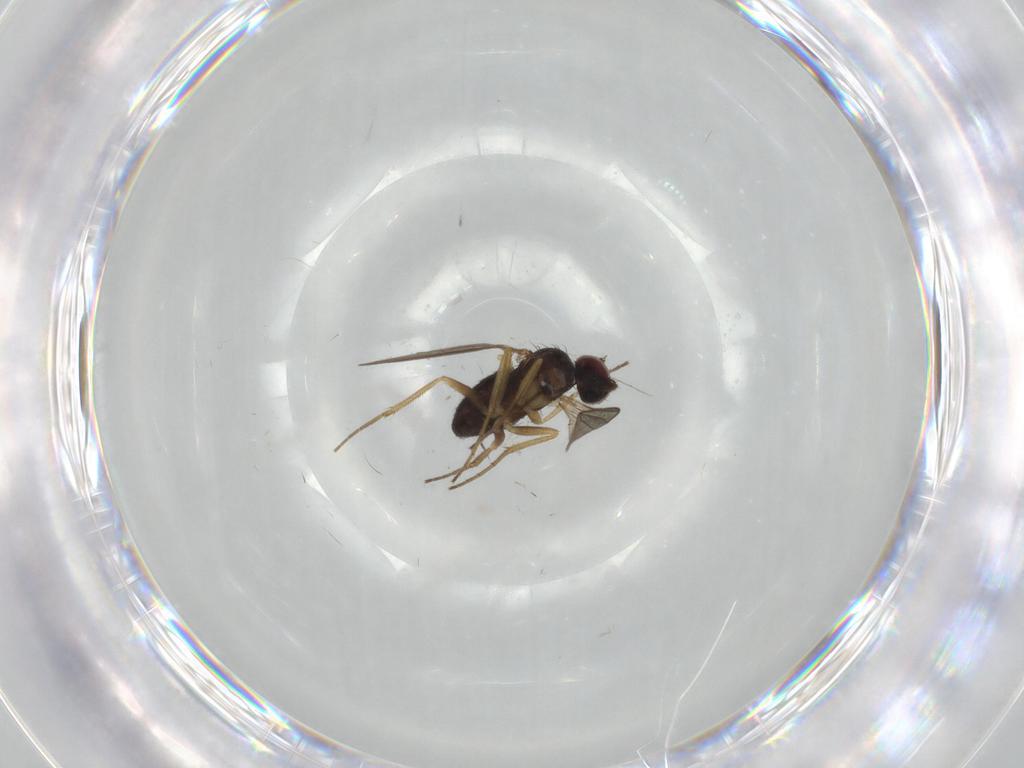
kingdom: Animalia
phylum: Arthropoda
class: Insecta
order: Diptera
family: Dolichopodidae
